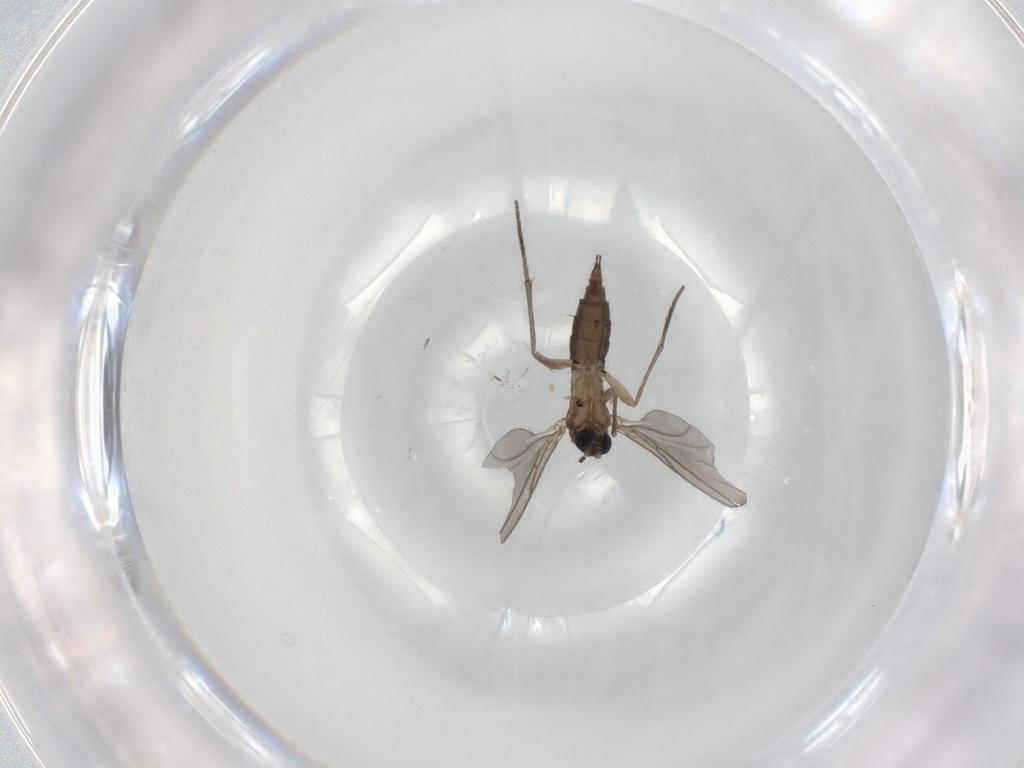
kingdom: Animalia
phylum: Arthropoda
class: Insecta
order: Diptera
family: Sciaridae
